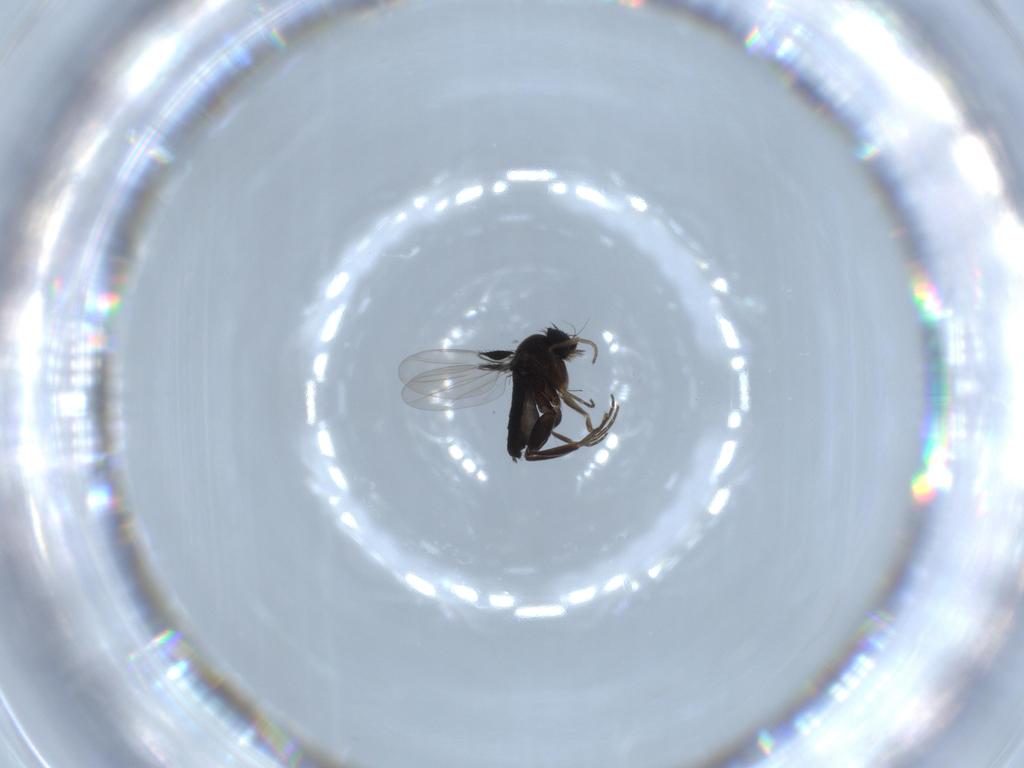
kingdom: Animalia
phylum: Arthropoda
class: Insecta
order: Diptera
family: Phoridae
